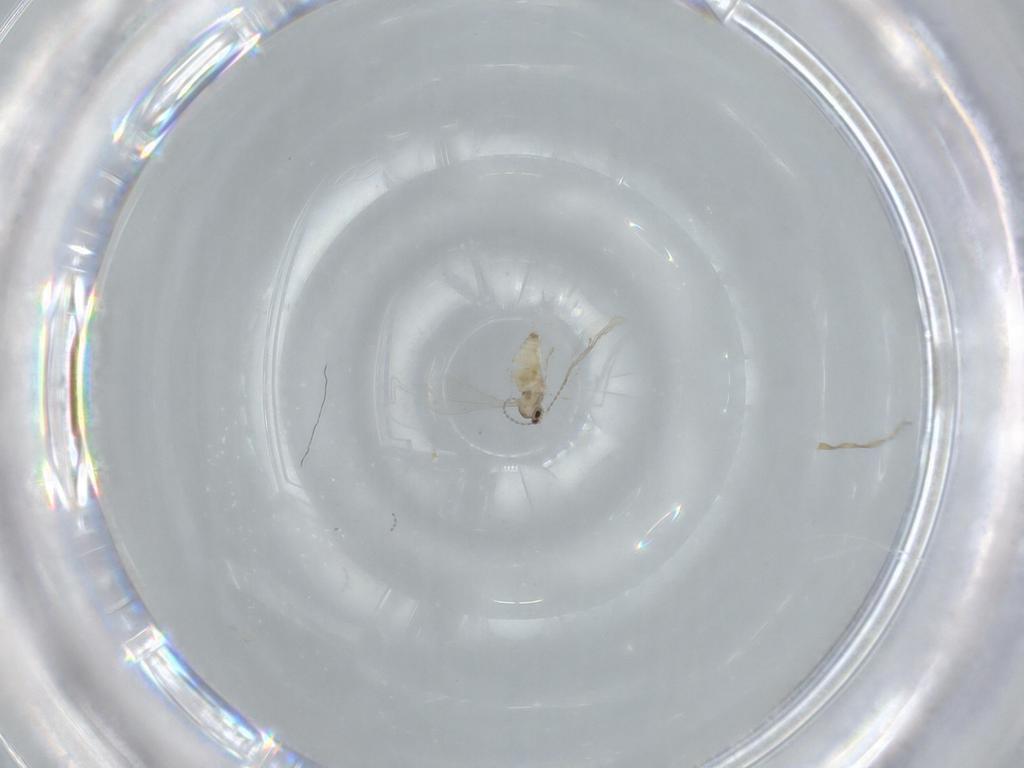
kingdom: Animalia
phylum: Arthropoda
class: Insecta
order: Diptera
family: Cecidomyiidae
